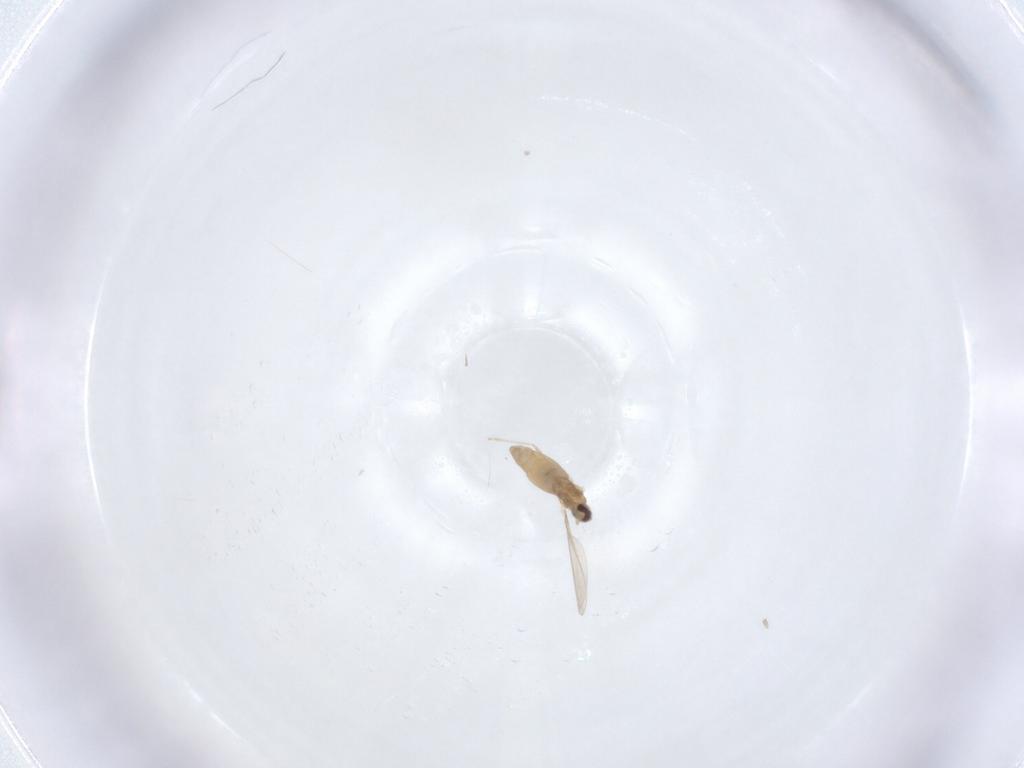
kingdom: Animalia
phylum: Arthropoda
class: Insecta
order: Diptera
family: Cecidomyiidae
